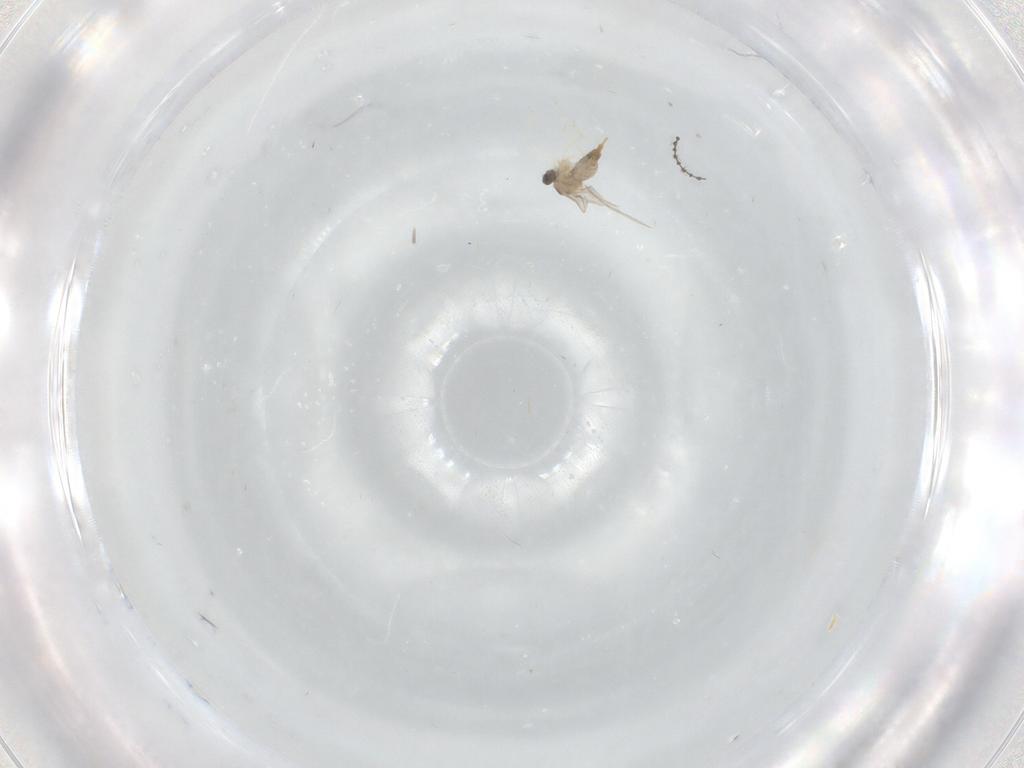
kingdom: Animalia
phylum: Arthropoda
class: Insecta
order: Diptera
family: Cecidomyiidae
